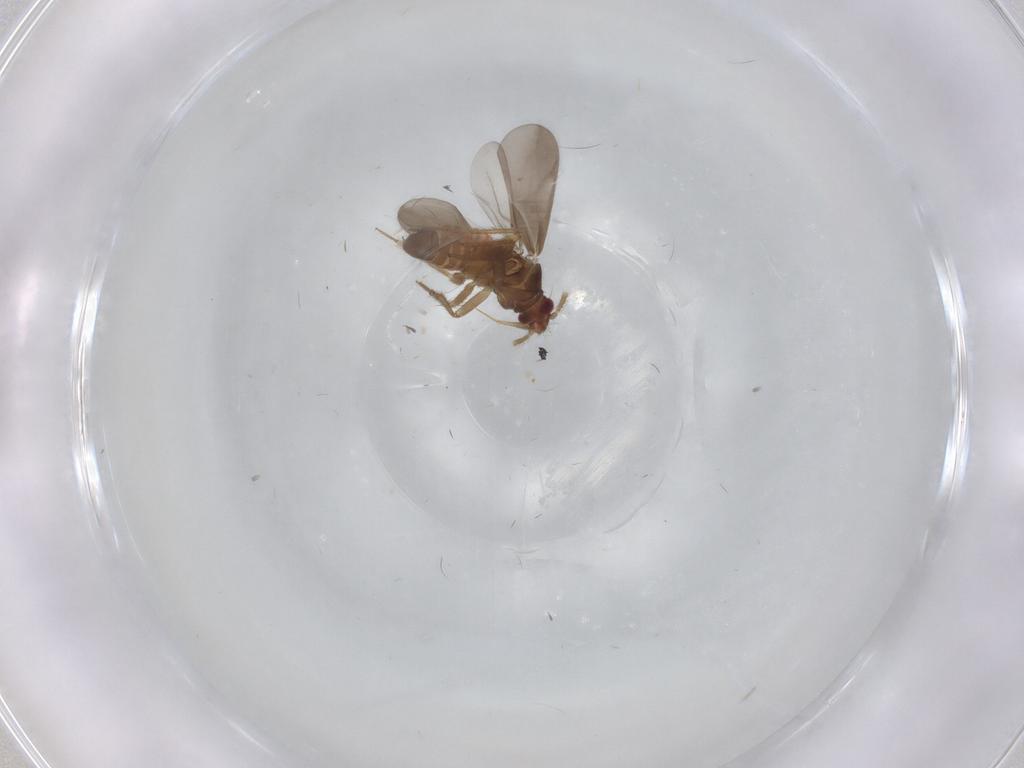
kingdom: Animalia
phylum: Arthropoda
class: Insecta
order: Hemiptera
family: Ceratocombidae
